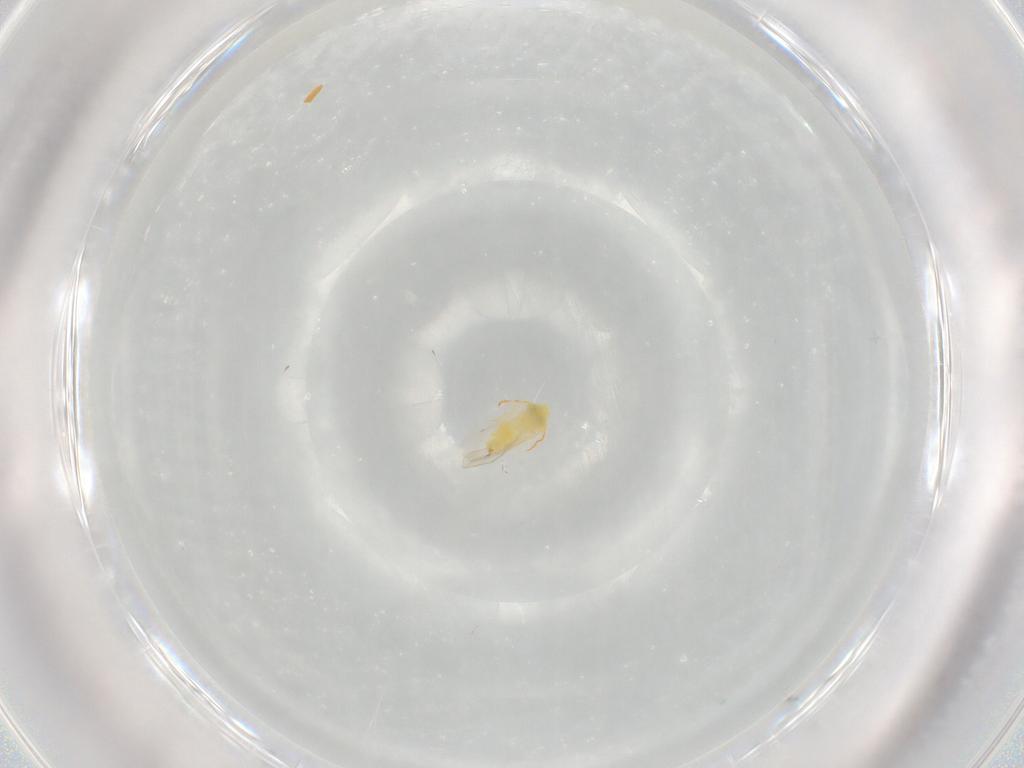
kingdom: Animalia
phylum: Arthropoda
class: Insecta
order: Hemiptera
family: Aleyrodidae
